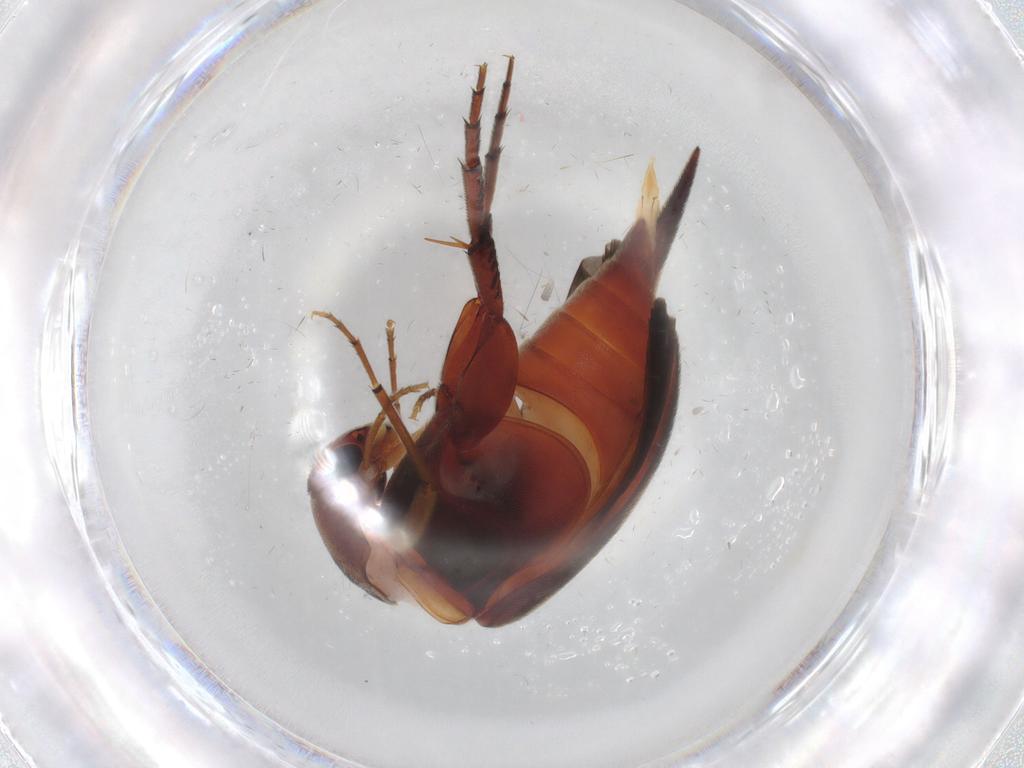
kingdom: Animalia
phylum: Arthropoda
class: Insecta
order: Coleoptera
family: Mordellidae
